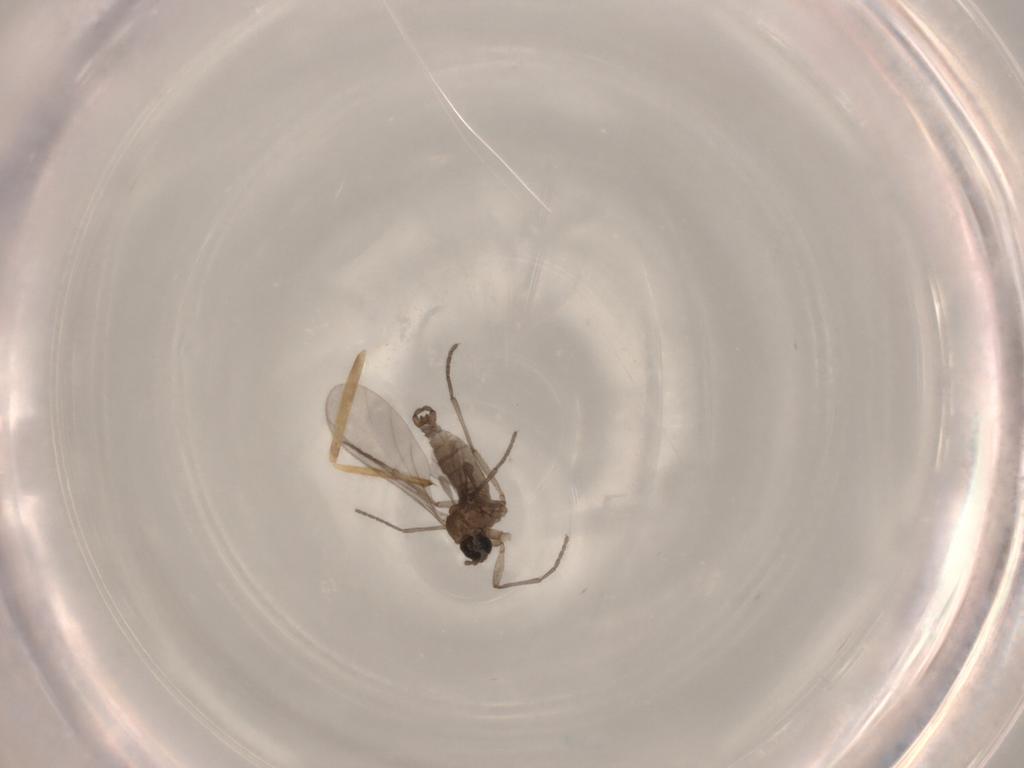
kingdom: Animalia
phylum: Arthropoda
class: Insecta
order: Diptera
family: Chironomidae
